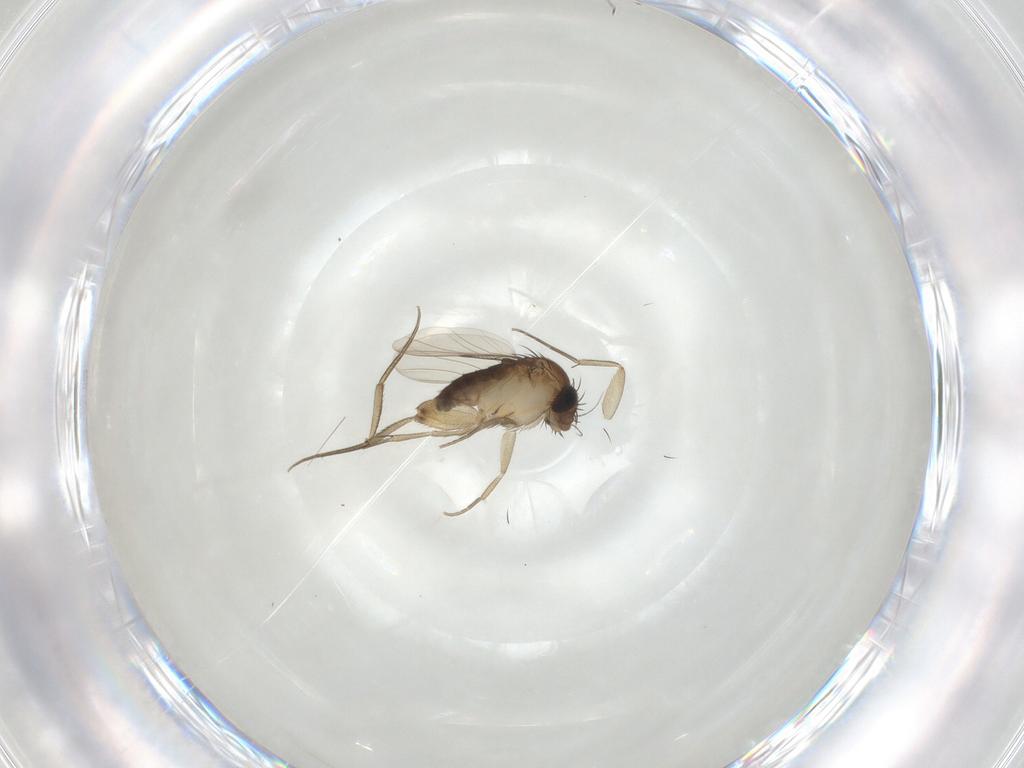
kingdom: Animalia
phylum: Arthropoda
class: Insecta
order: Diptera
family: Phoridae
